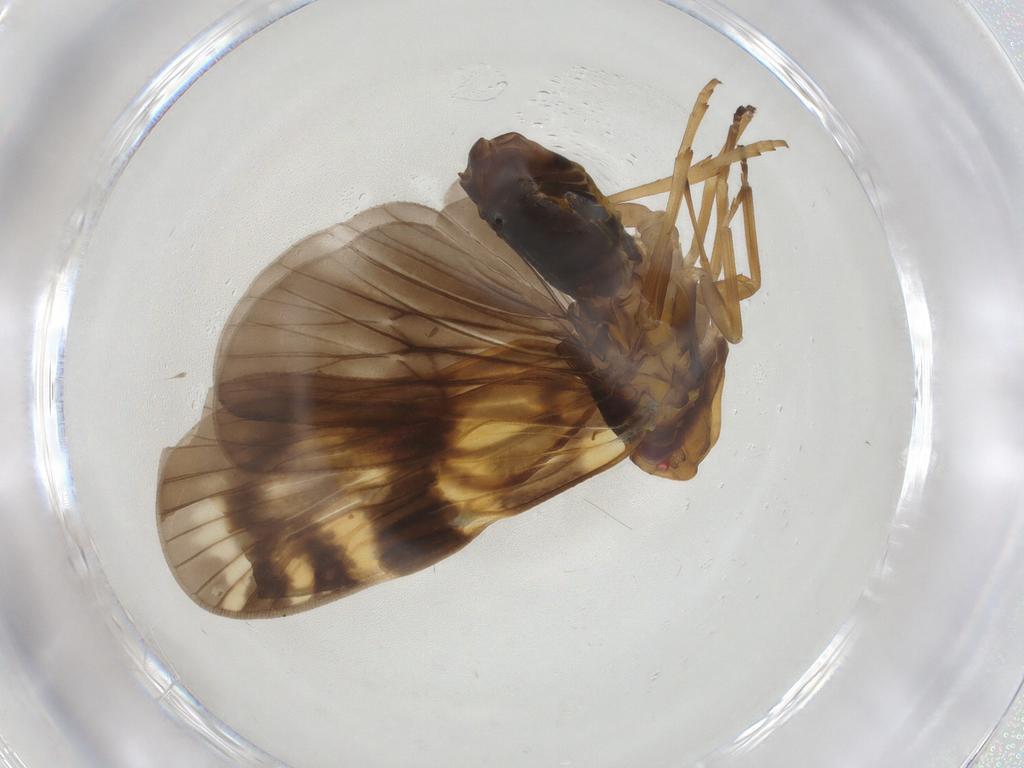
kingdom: Animalia
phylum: Arthropoda
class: Insecta
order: Hemiptera
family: Cixiidae
